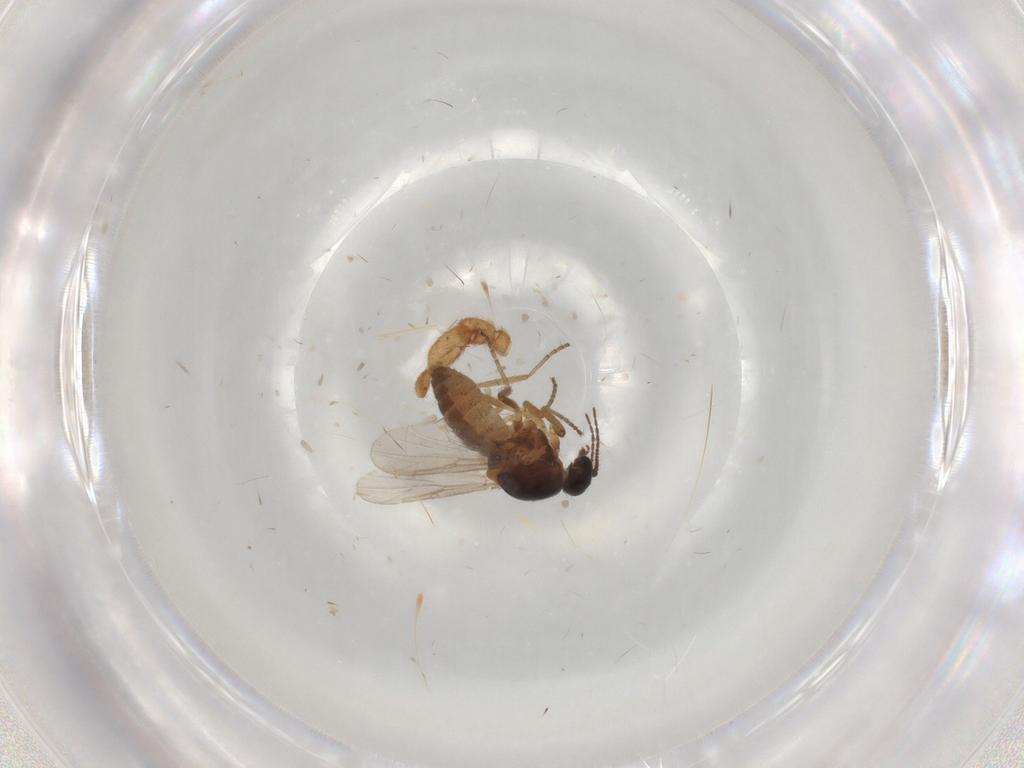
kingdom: Animalia
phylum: Arthropoda
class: Insecta
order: Diptera
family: Ceratopogonidae
